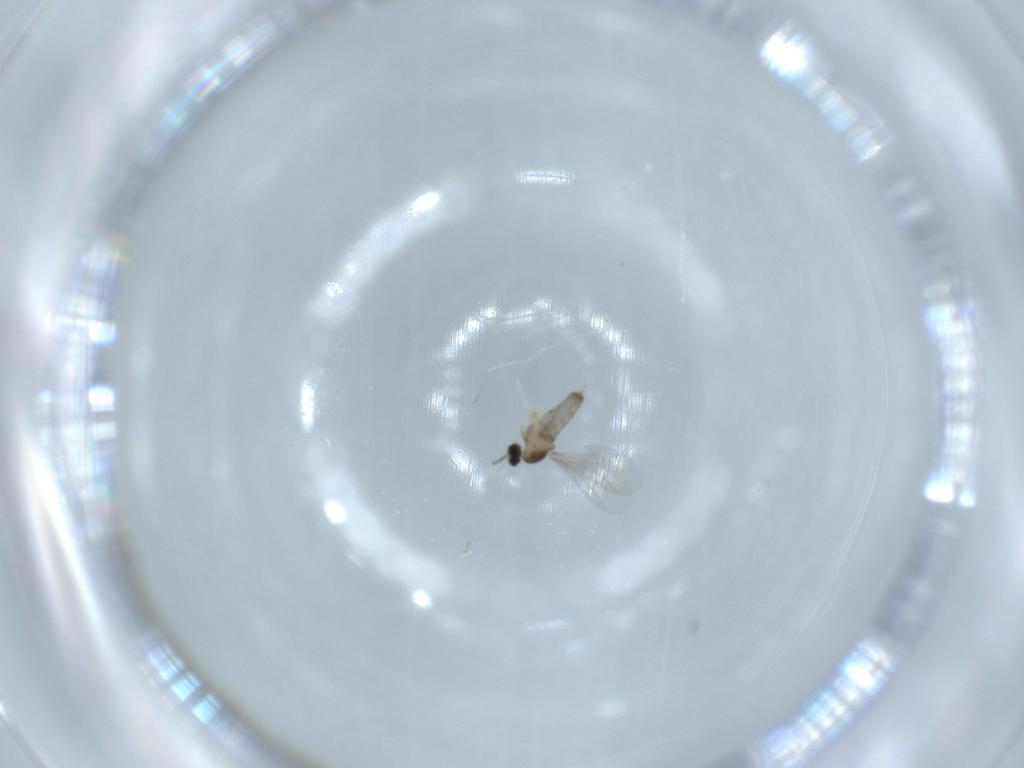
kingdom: Animalia
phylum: Arthropoda
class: Insecta
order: Diptera
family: Cecidomyiidae
